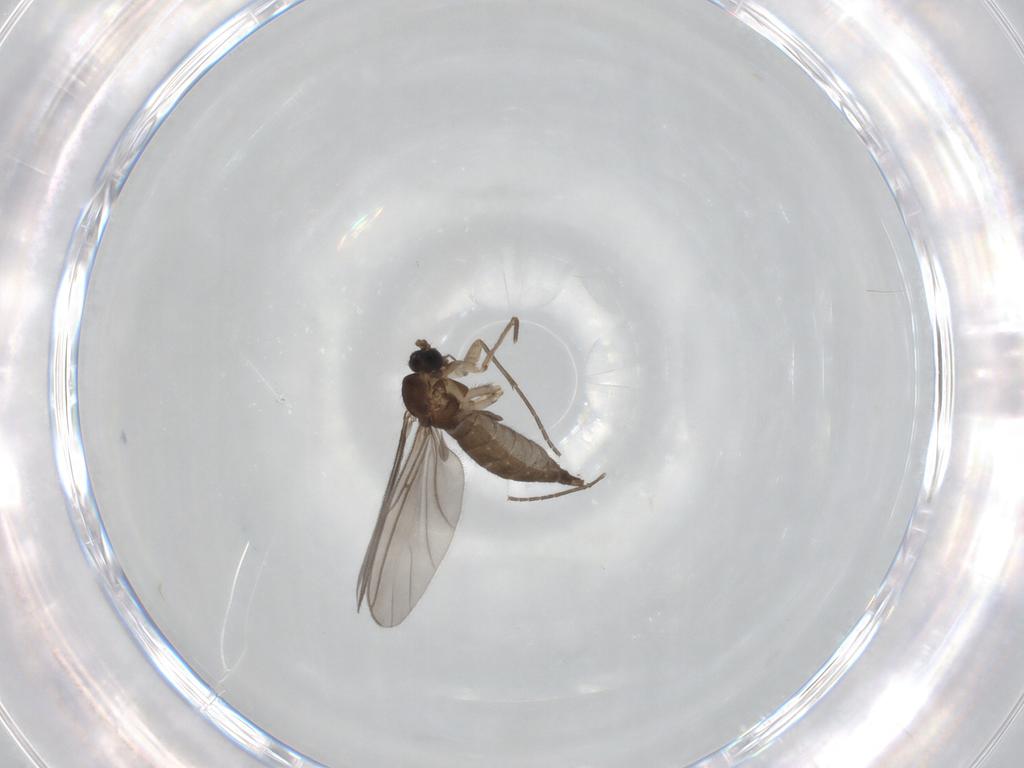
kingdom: Animalia
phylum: Arthropoda
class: Insecta
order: Diptera
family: Sciaridae
